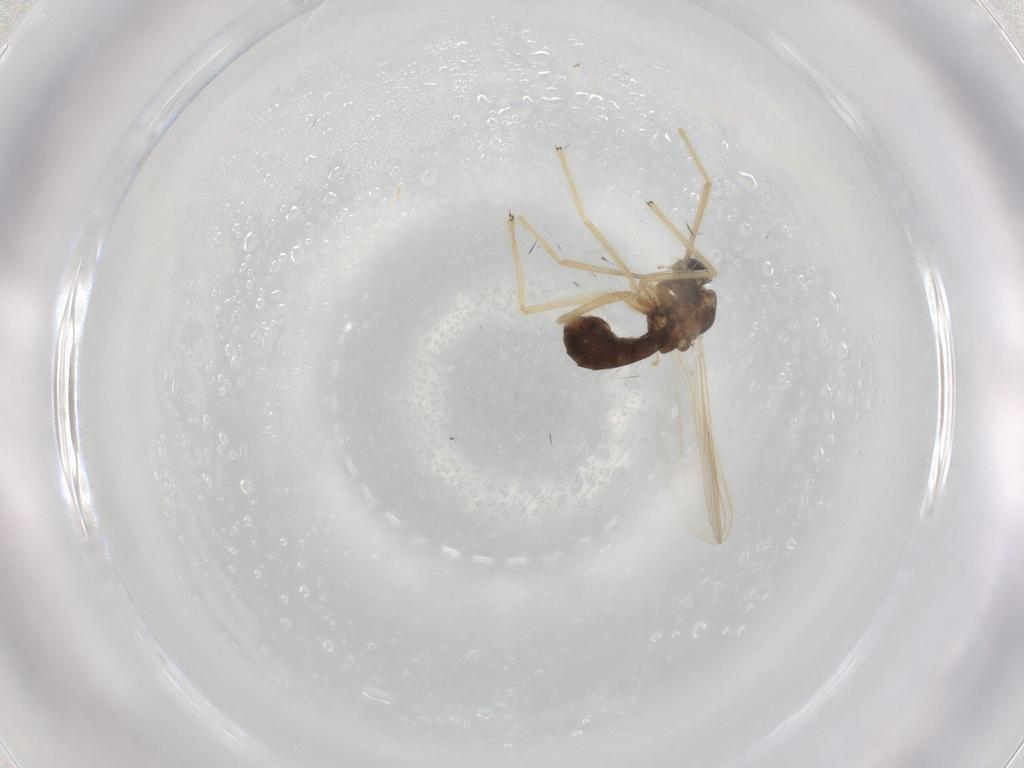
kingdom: Animalia
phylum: Arthropoda
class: Insecta
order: Diptera
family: Chironomidae
